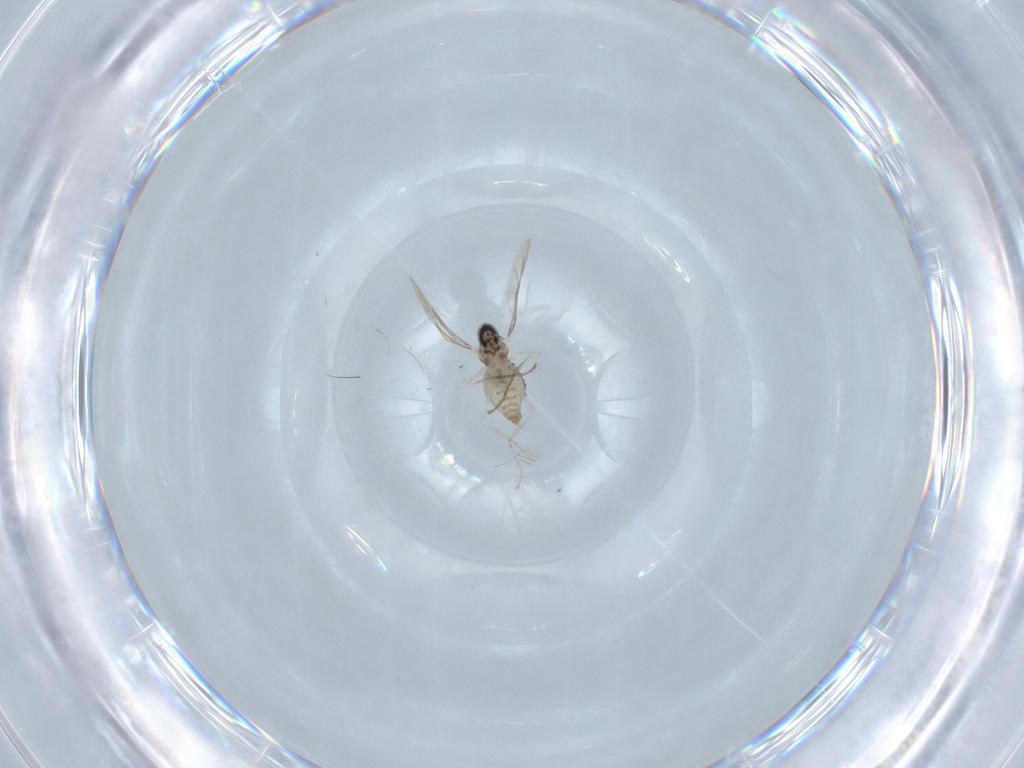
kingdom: Animalia
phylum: Arthropoda
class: Insecta
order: Diptera
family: Cecidomyiidae
